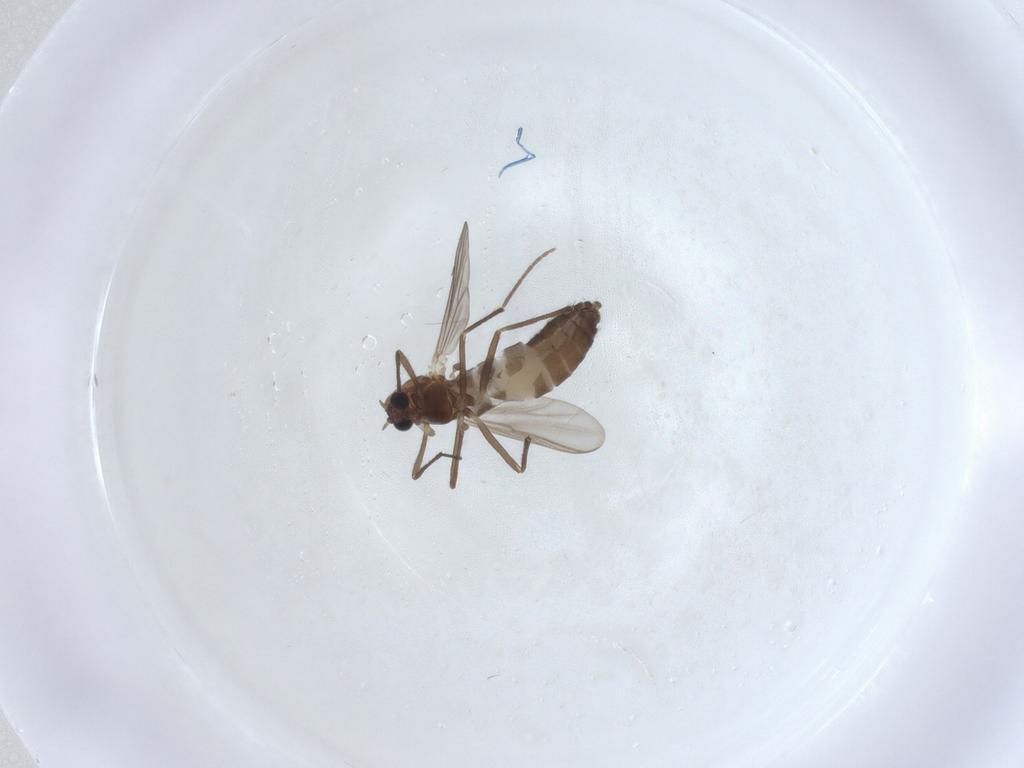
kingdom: Animalia
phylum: Arthropoda
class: Insecta
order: Diptera
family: Chironomidae
